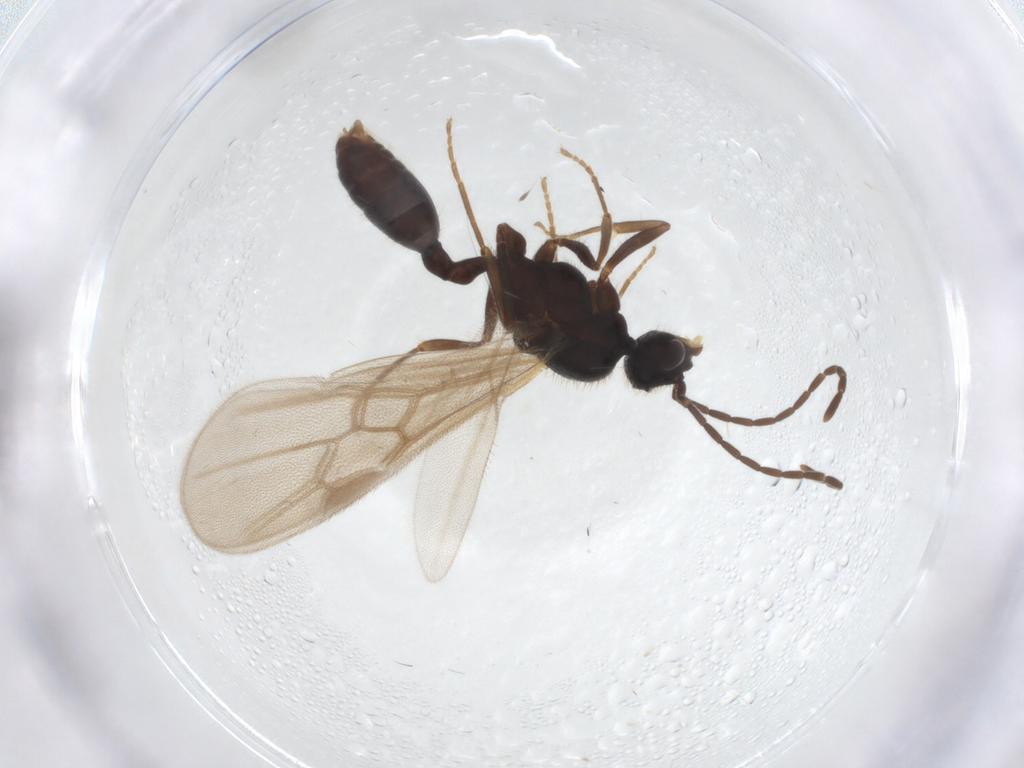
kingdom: Animalia
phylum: Arthropoda
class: Insecta
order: Hymenoptera
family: Formicidae
